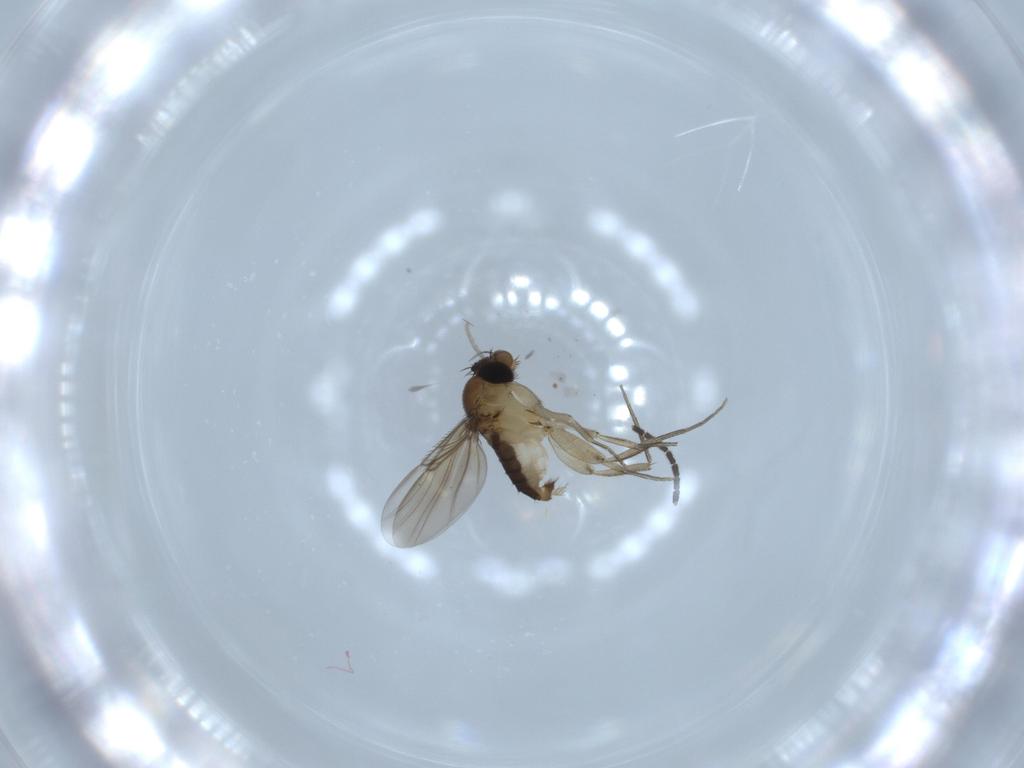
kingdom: Animalia
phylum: Arthropoda
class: Insecta
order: Diptera
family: Phoridae
